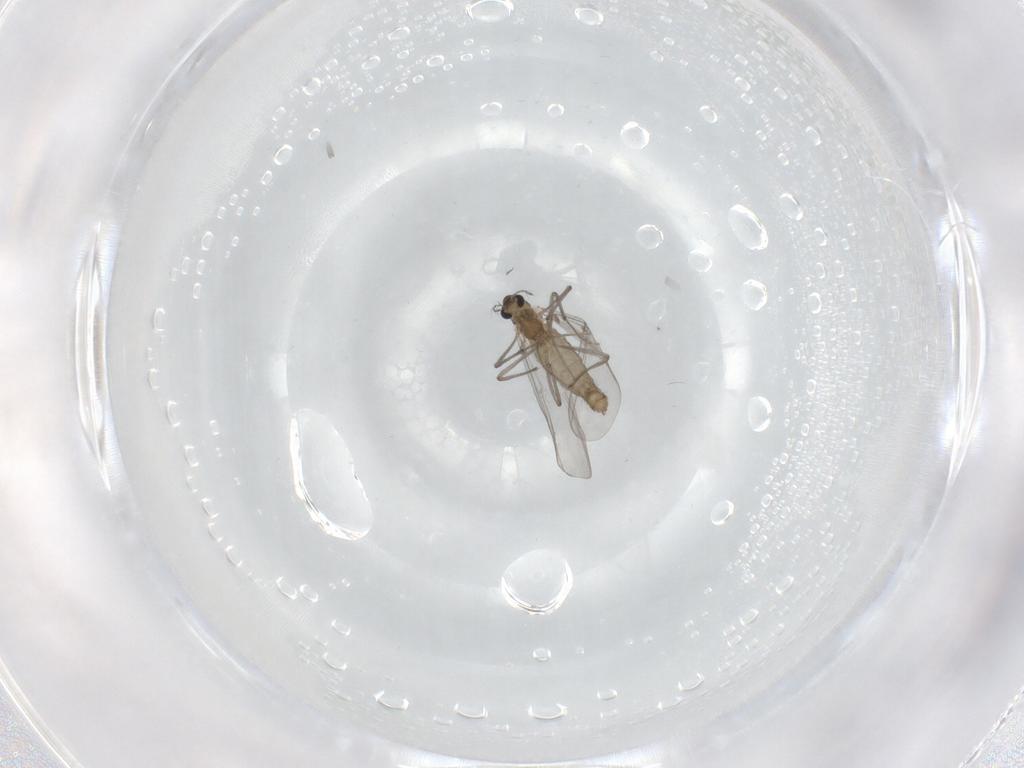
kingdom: Animalia
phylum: Arthropoda
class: Insecta
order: Diptera
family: Chironomidae
